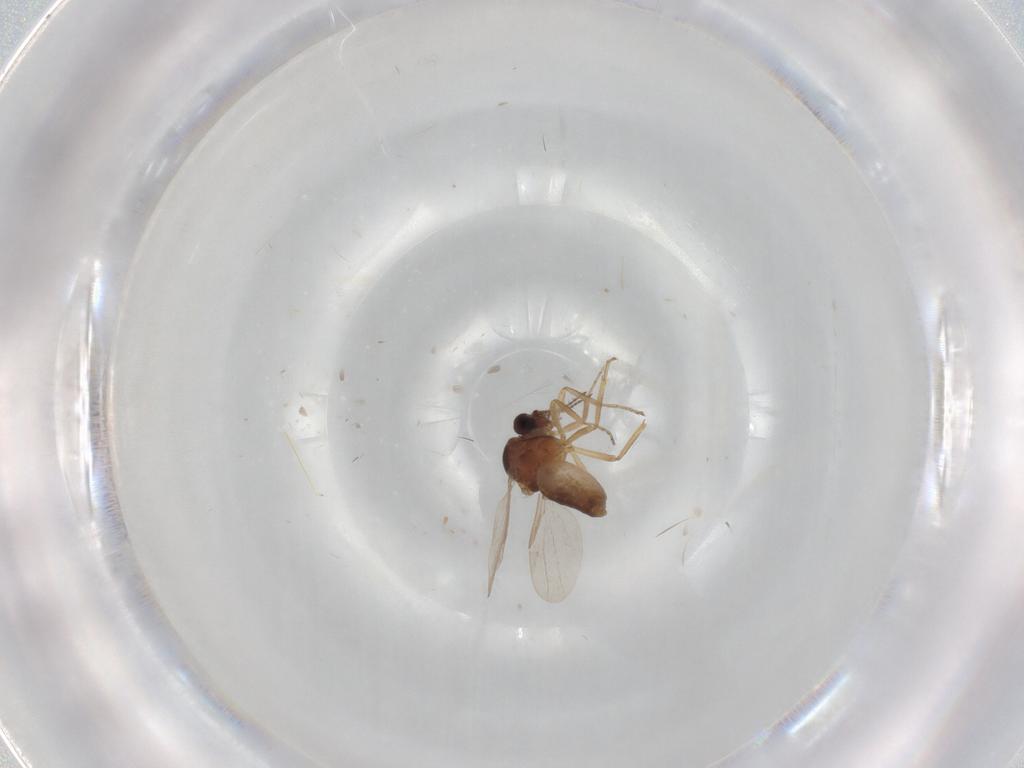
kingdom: Animalia
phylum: Arthropoda
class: Insecta
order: Diptera
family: Ceratopogonidae
